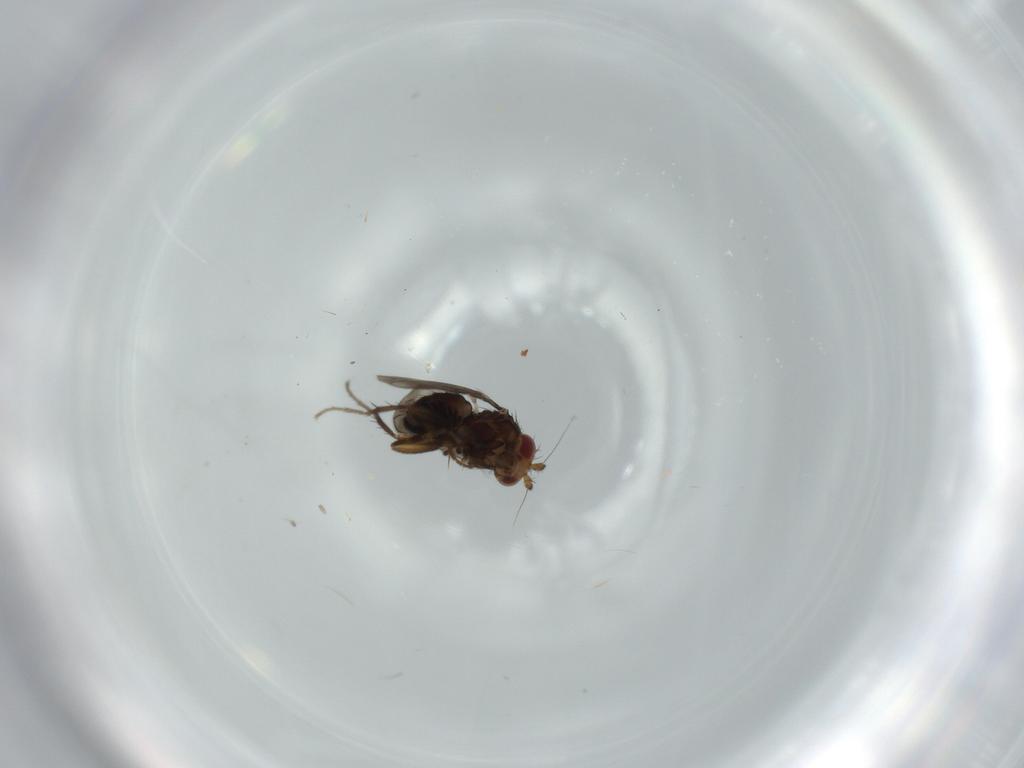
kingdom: Animalia
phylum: Arthropoda
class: Insecta
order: Diptera
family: Sphaeroceridae
